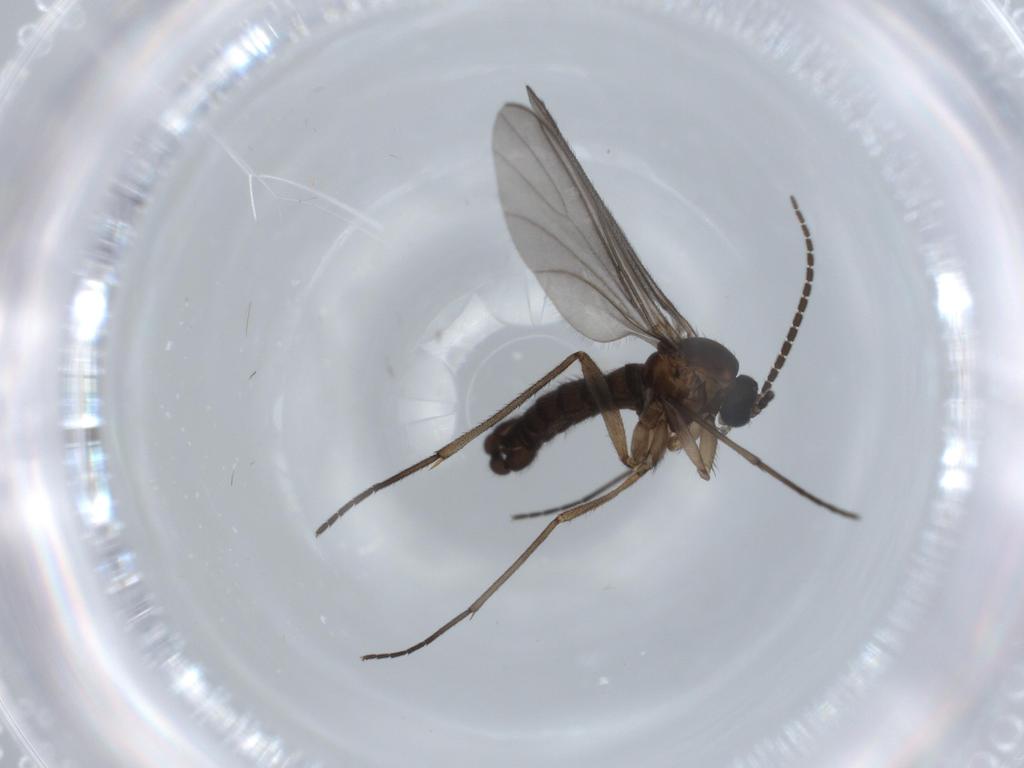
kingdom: Animalia
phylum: Arthropoda
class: Insecta
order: Diptera
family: Sciaridae
